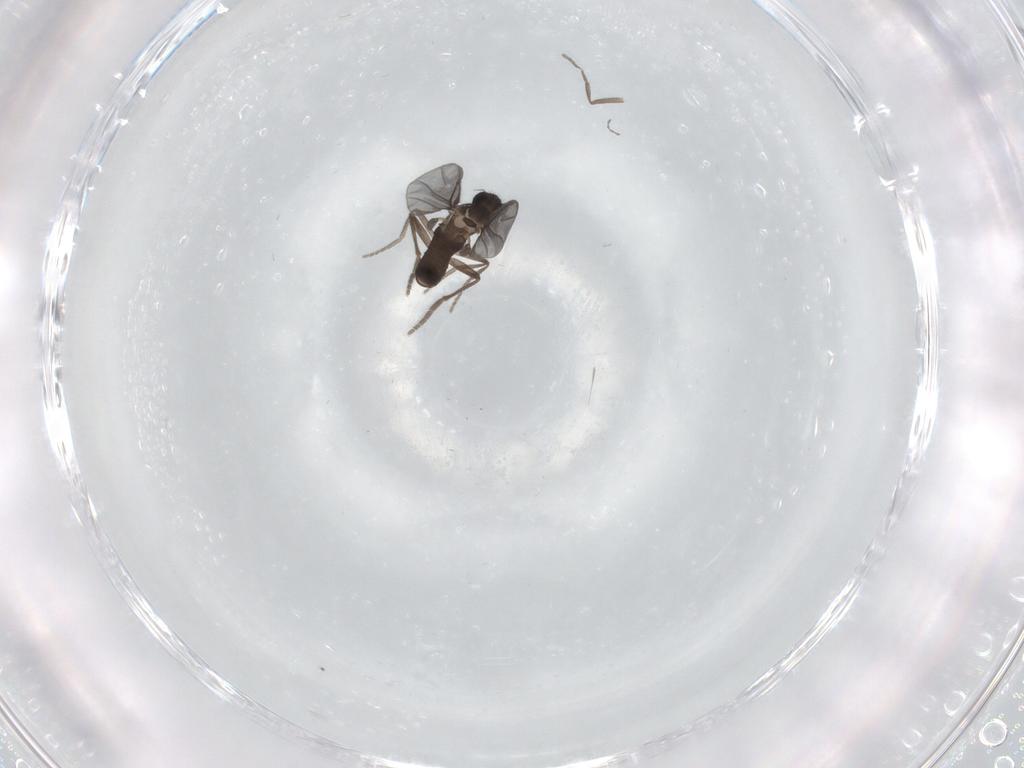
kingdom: Animalia
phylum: Arthropoda
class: Insecta
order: Diptera
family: Phoridae
